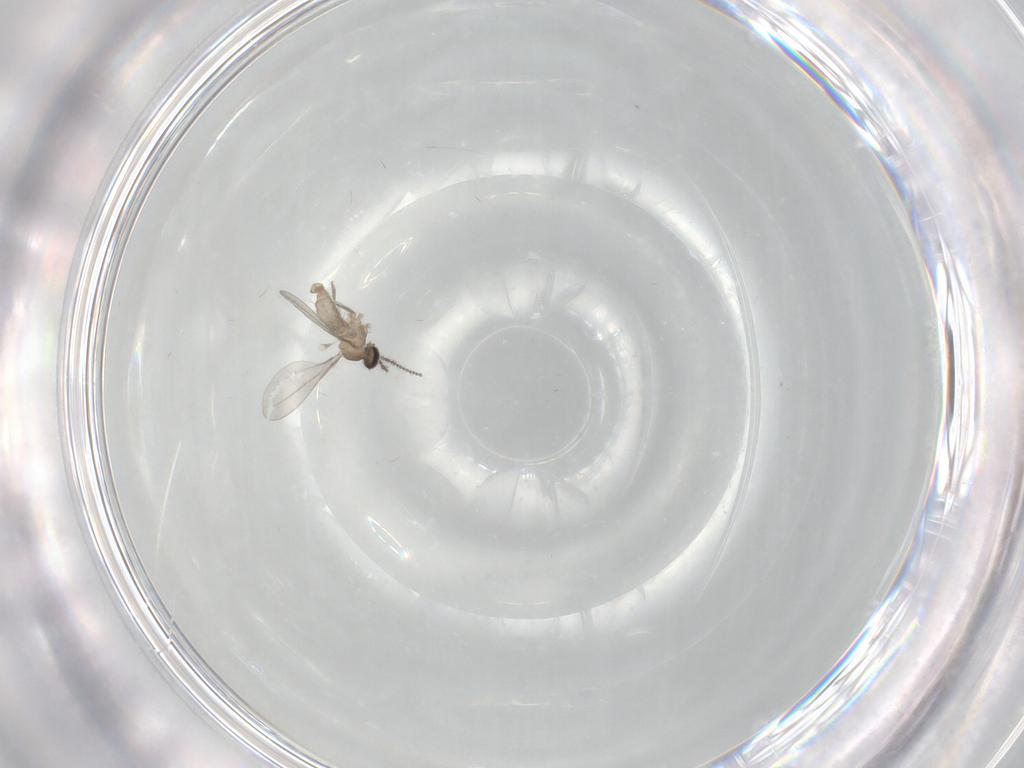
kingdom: Animalia
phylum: Arthropoda
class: Insecta
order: Diptera
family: Cecidomyiidae
